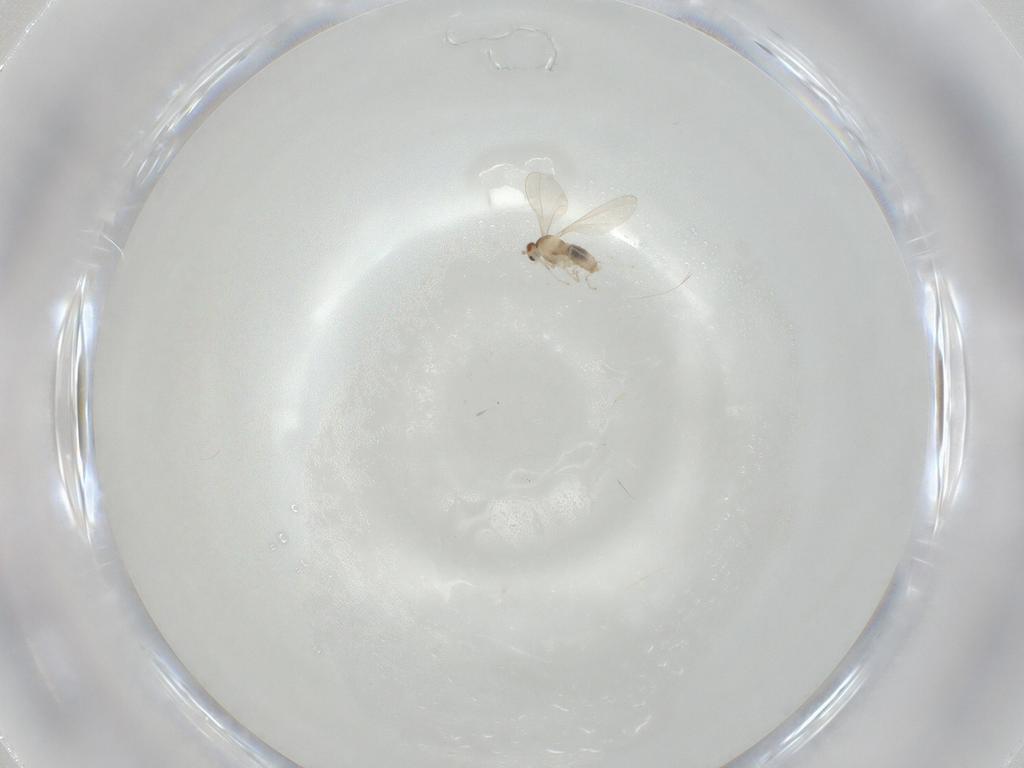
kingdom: Animalia
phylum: Arthropoda
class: Insecta
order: Diptera
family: Cecidomyiidae
